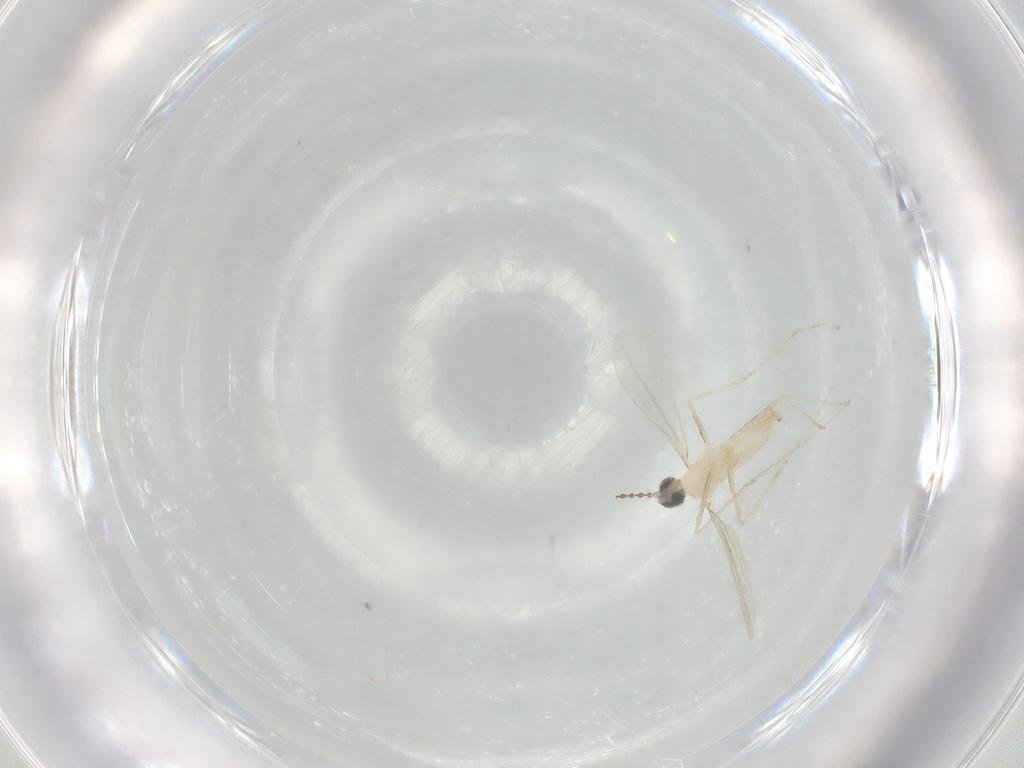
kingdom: Animalia
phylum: Arthropoda
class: Insecta
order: Diptera
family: Cecidomyiidae
